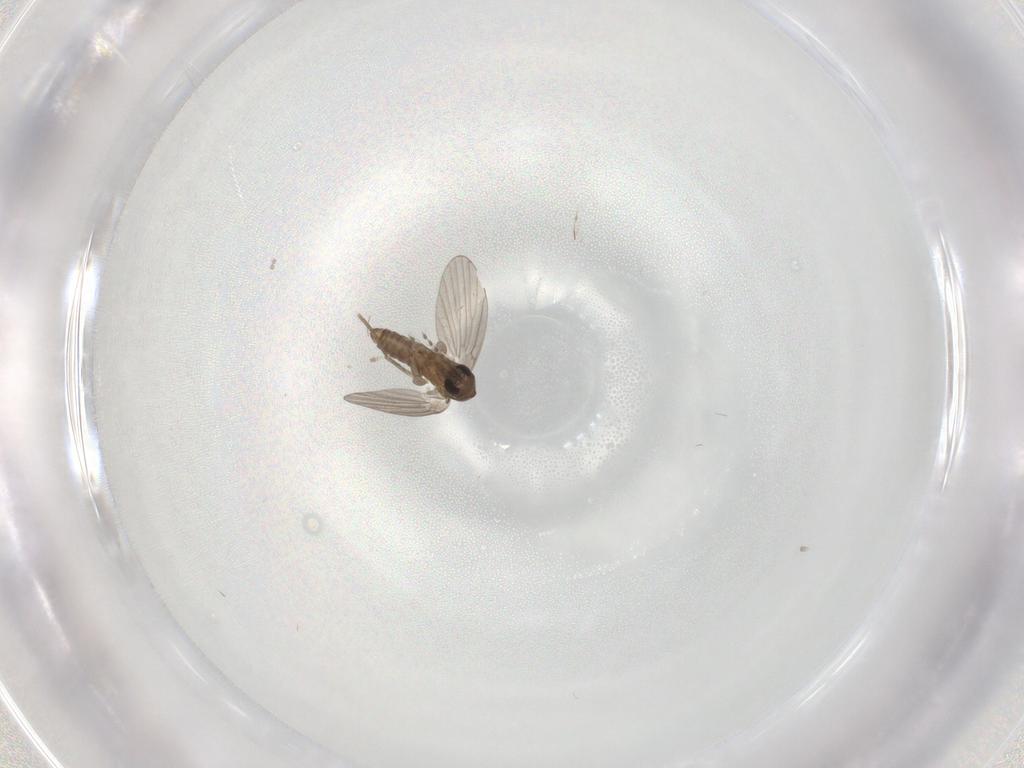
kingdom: Animalia
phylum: Arthropoda
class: Insecta
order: Diptera
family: Cecidomyiidae
